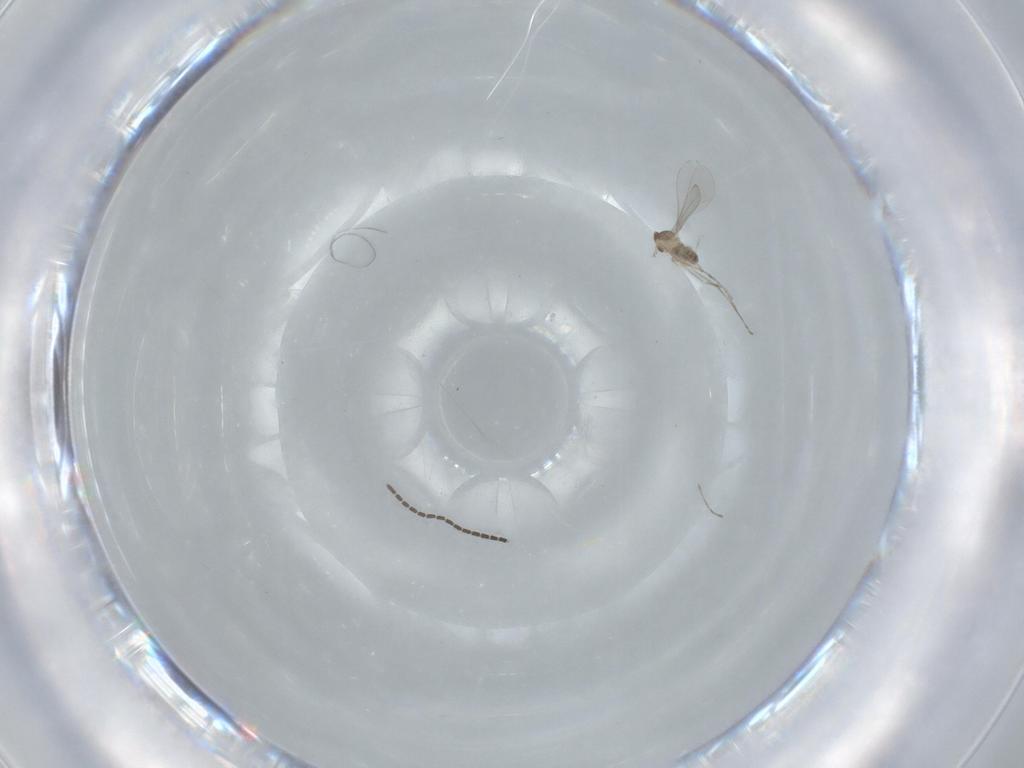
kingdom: Animalia
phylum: Arthropoda
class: Insecta
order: Diptera
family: Cecidomyiidae
